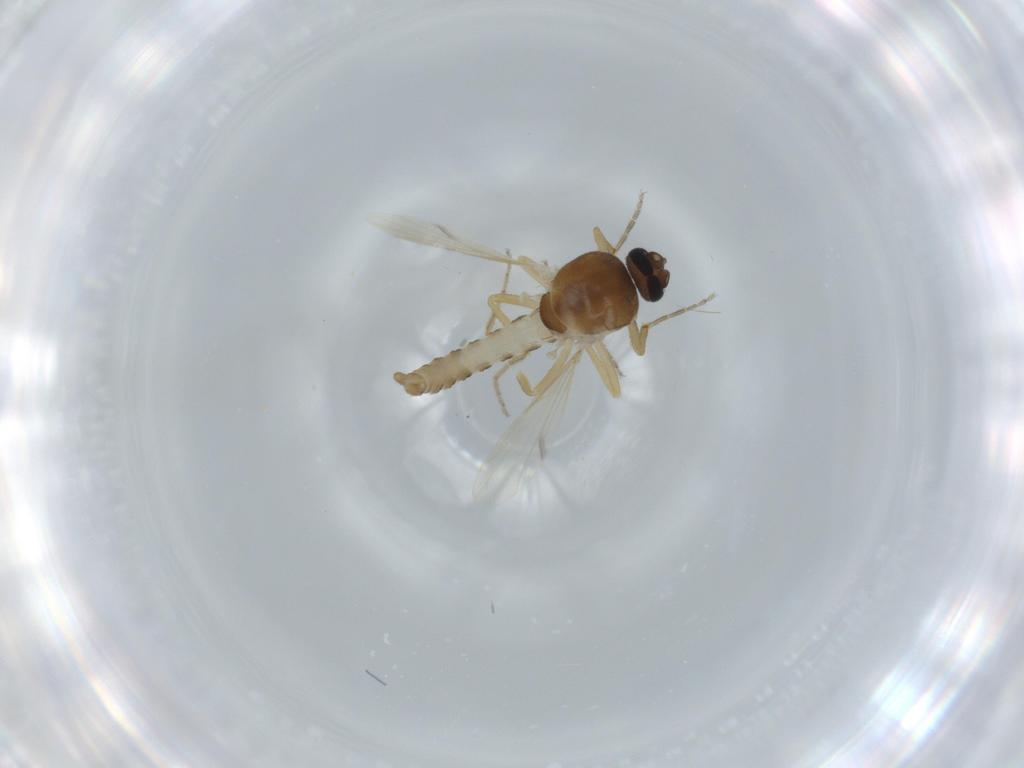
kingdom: Animalia
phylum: Arthropoda
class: Insecta
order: Diptera
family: Ceratopogonidae
